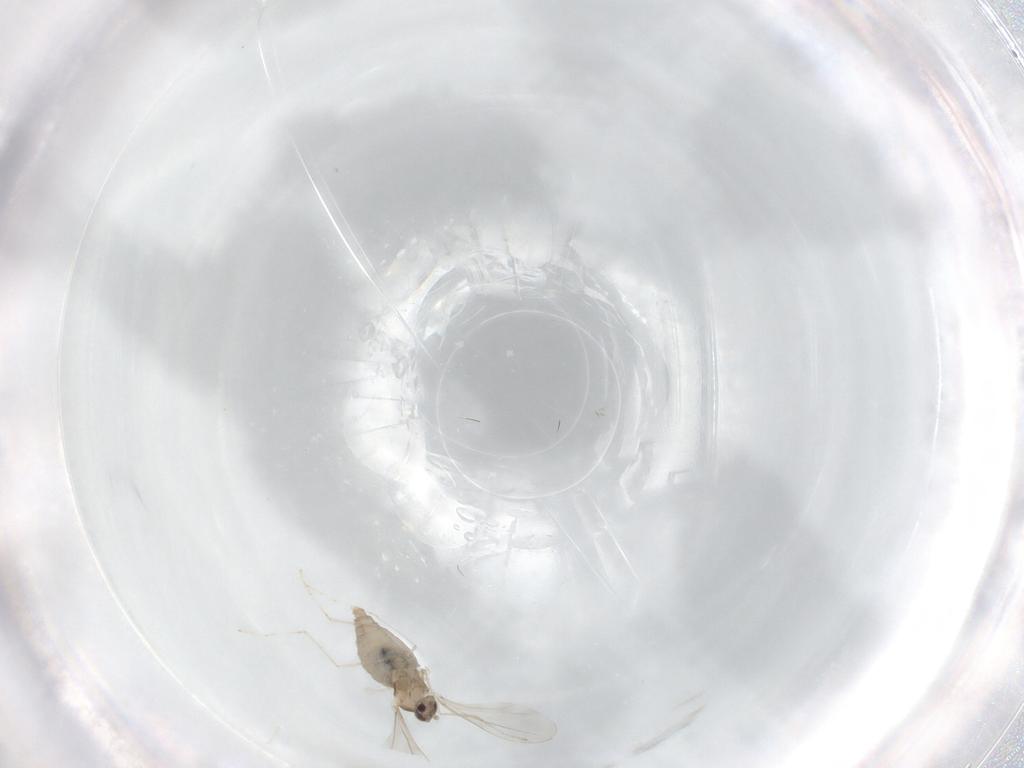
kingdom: Animalia
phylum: Arthropoda
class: Insecta
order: Diptera
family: Cecidomyiidae
